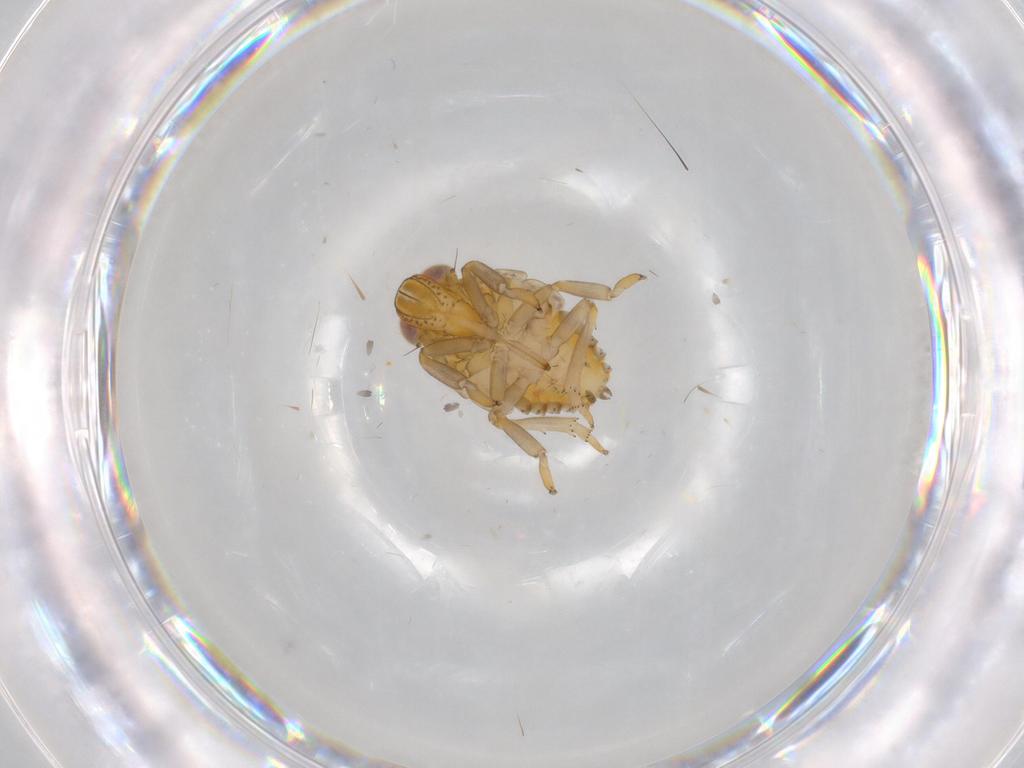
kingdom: Animalia
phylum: Arthropoda
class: Insecta
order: Hemiptera
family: Issidae
